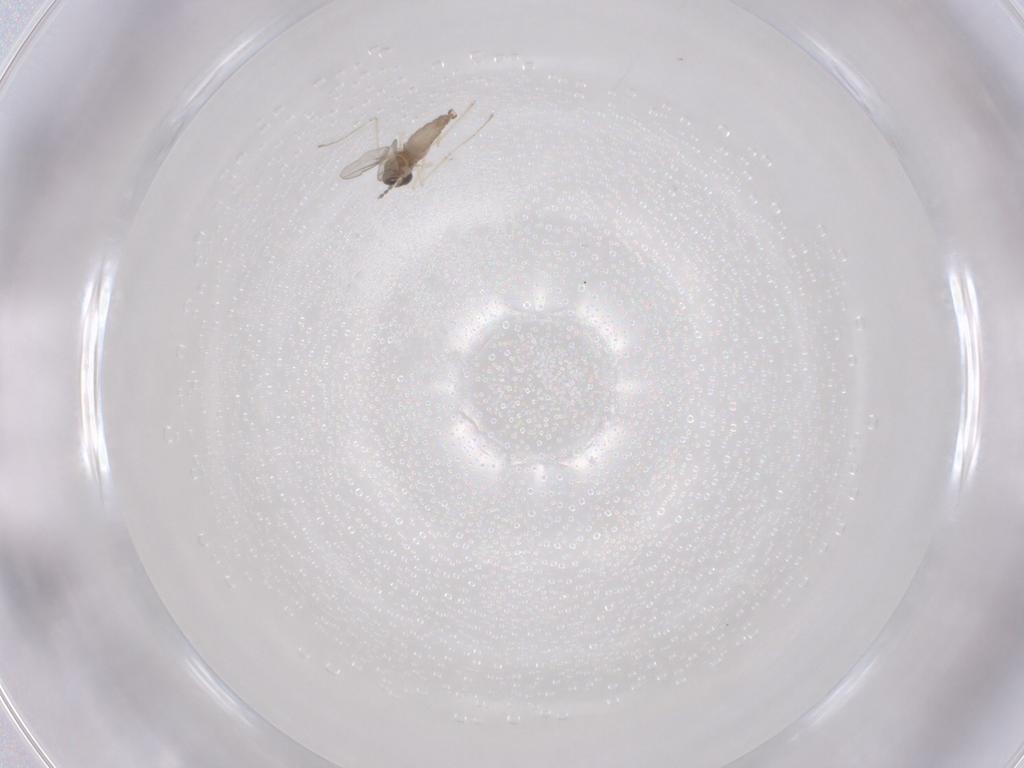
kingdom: Animalia
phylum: Arthropoda
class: Insecta
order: Diptera
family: Cecidomyiidae
